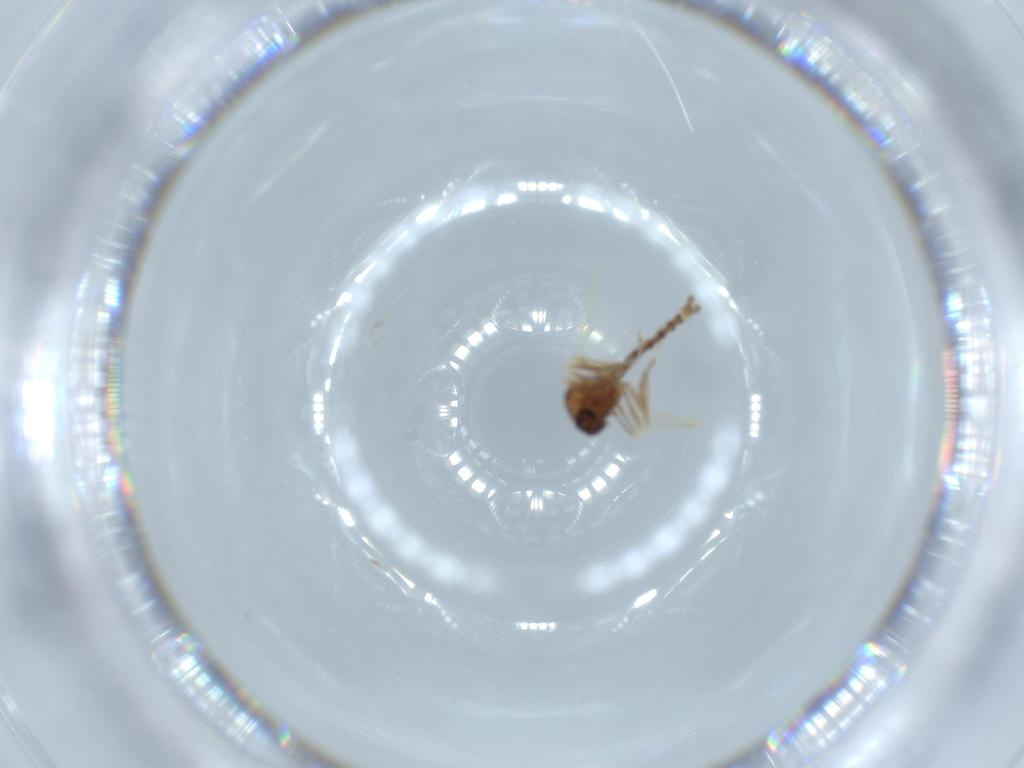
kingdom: Animalia
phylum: Arthropoda
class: Insecta
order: Diptera
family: Ceratopogonidae
